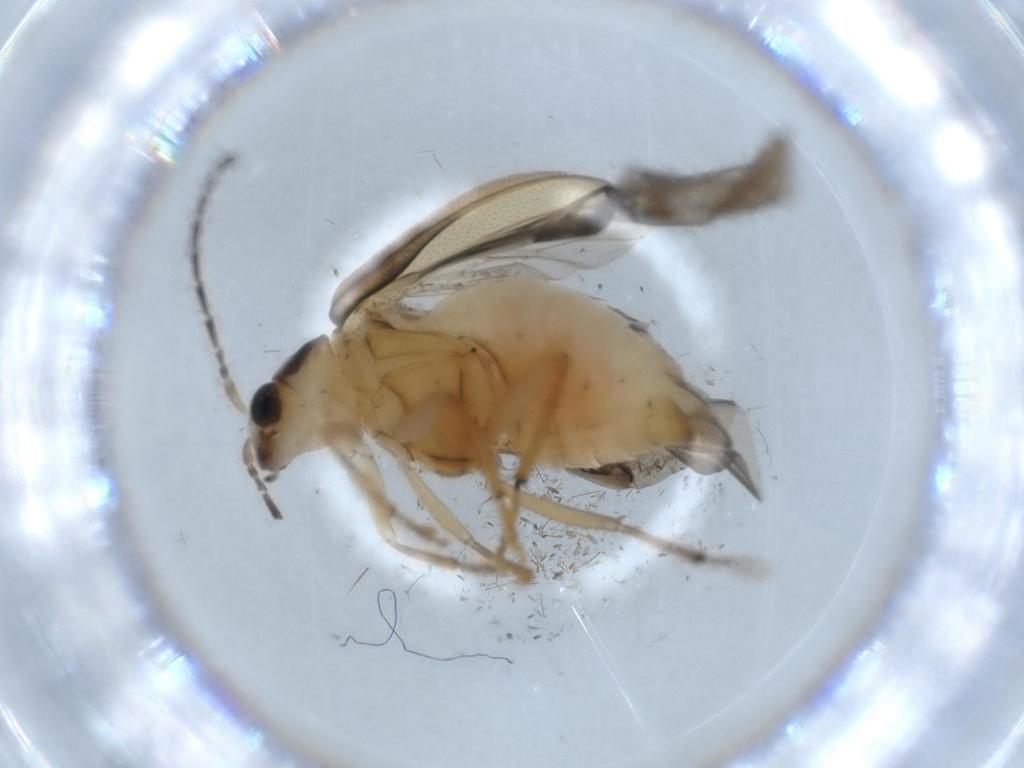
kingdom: Animalia
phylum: Arthropoda
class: Insecta
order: Coleoptera
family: Chrysomelidae
